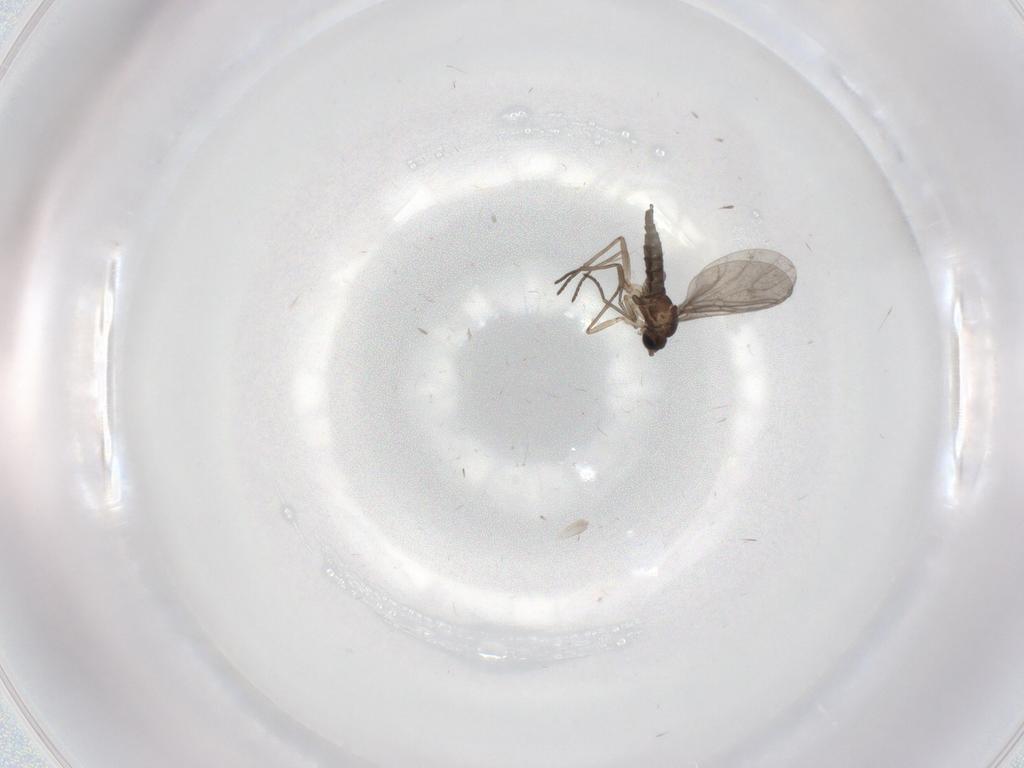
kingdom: Animalia
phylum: Arthropoda
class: Insecta
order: Diptera
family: Sciaridae
